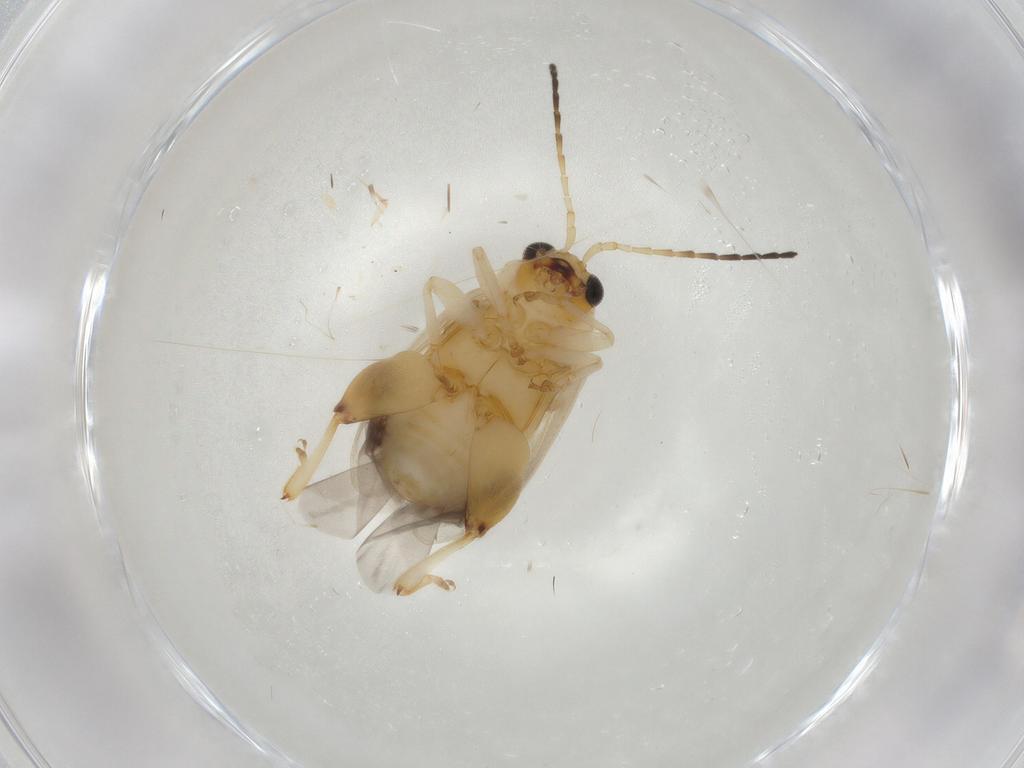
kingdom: Animalia
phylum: Arthropoda
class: Insecta
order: Coleoptera
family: Chrysomelidae
